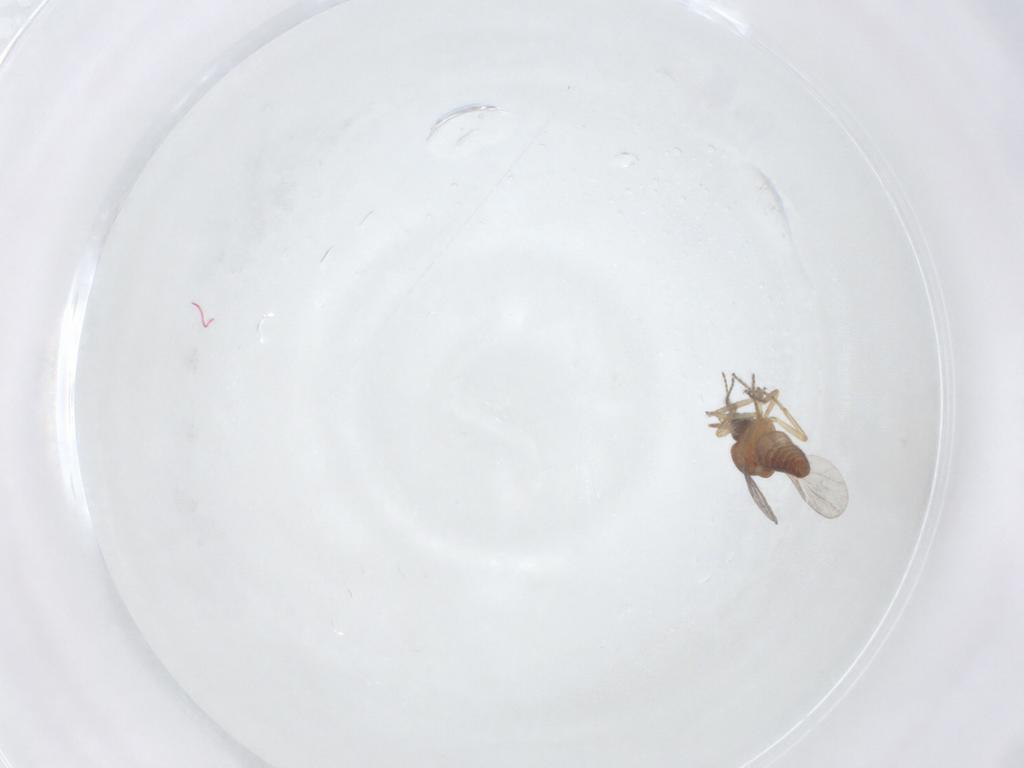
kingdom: Animalia
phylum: Arthropoda
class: Insecta
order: Diptera
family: Ceratopogonidae
